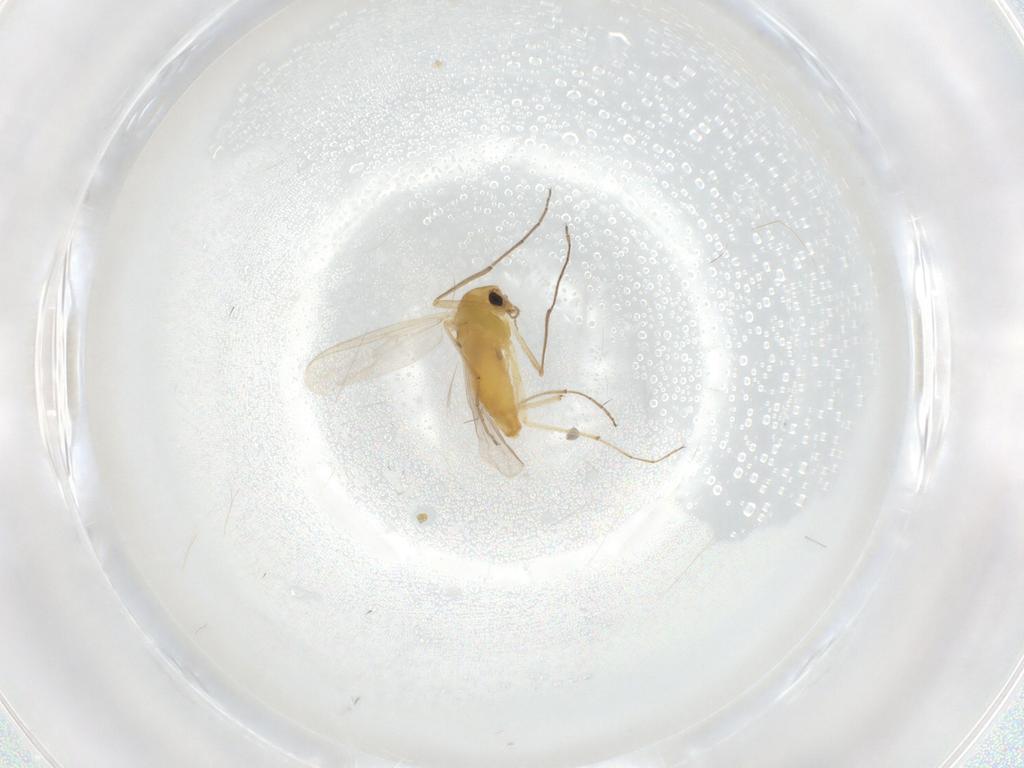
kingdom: Animalia
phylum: Arthropoda
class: Insecta
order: Diptera
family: Chironomidae
